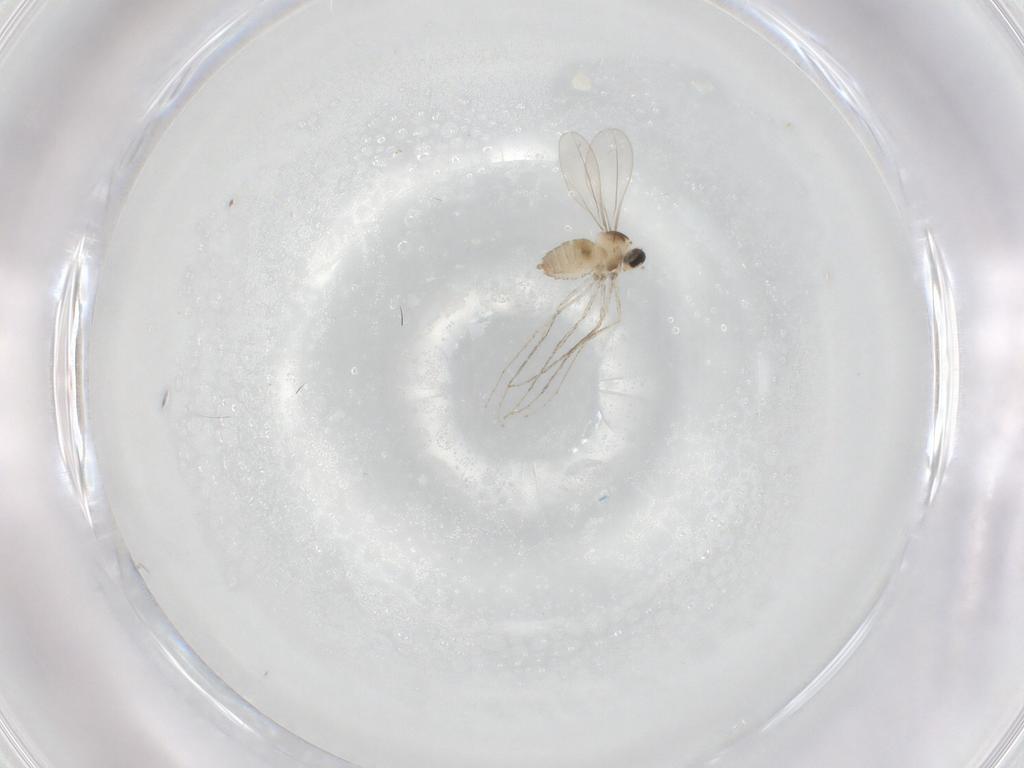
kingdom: Animalia
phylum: Arthropoda
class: Insecta
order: Diptera
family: Cecidomyiidae
